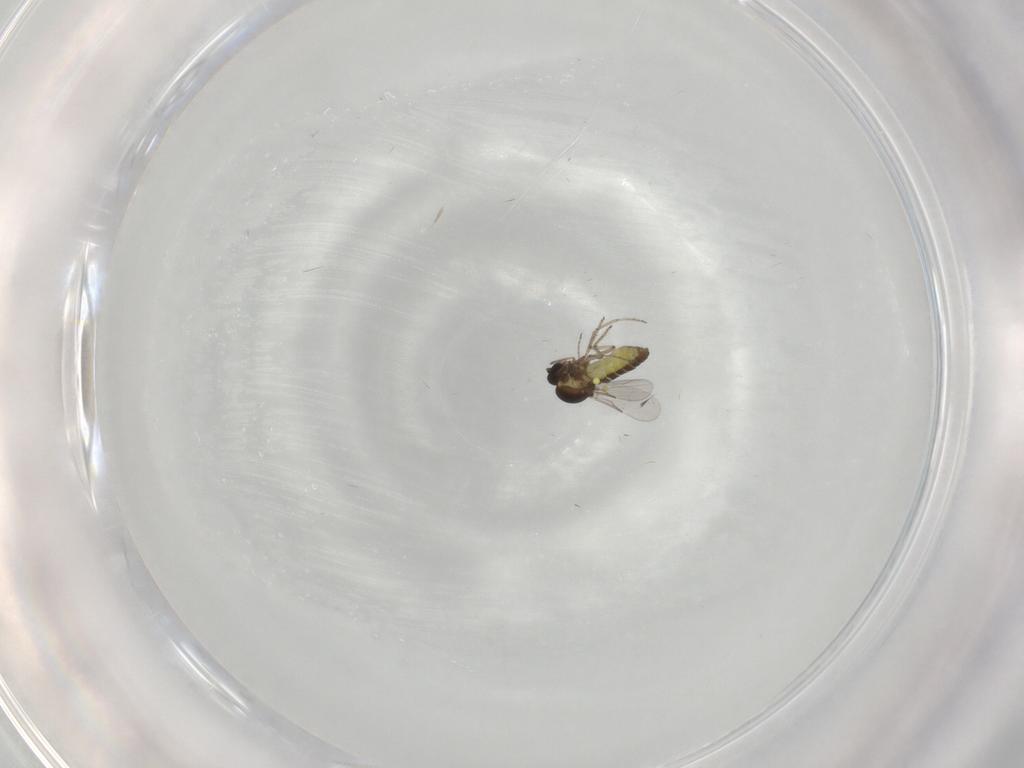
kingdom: Animalia
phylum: Arthropoda
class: Insecta
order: Diptera
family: Ceratopogonidae
